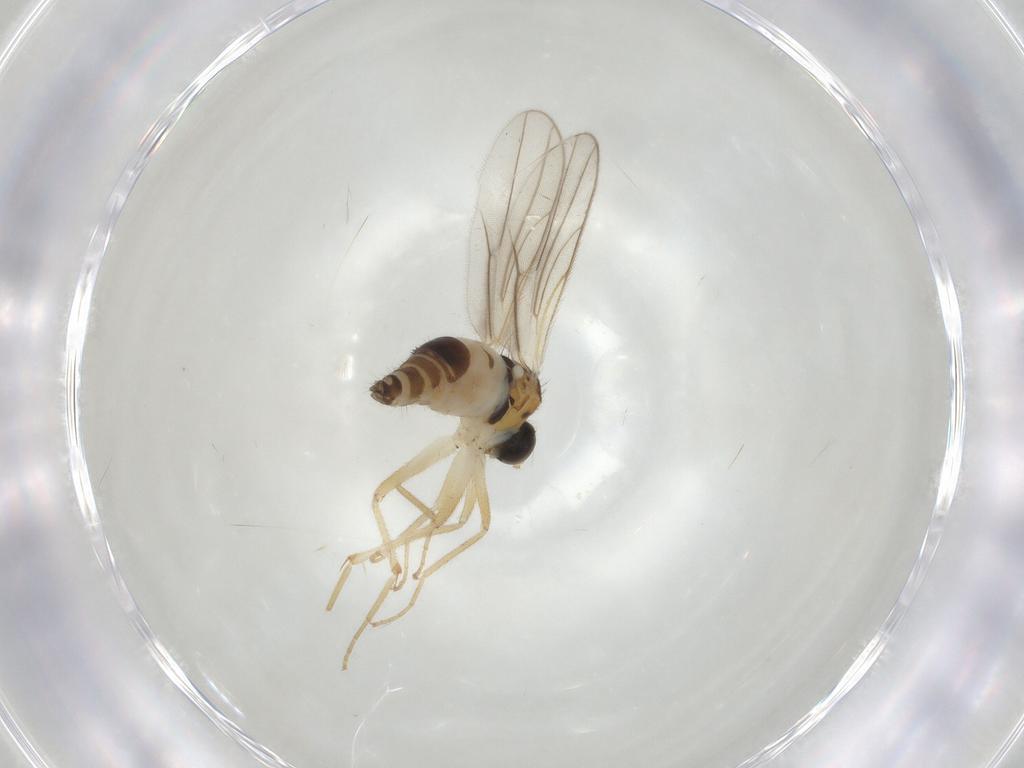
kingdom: Animalia
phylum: Arthropoda
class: Insecta
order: Diptera
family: Hybotidae
